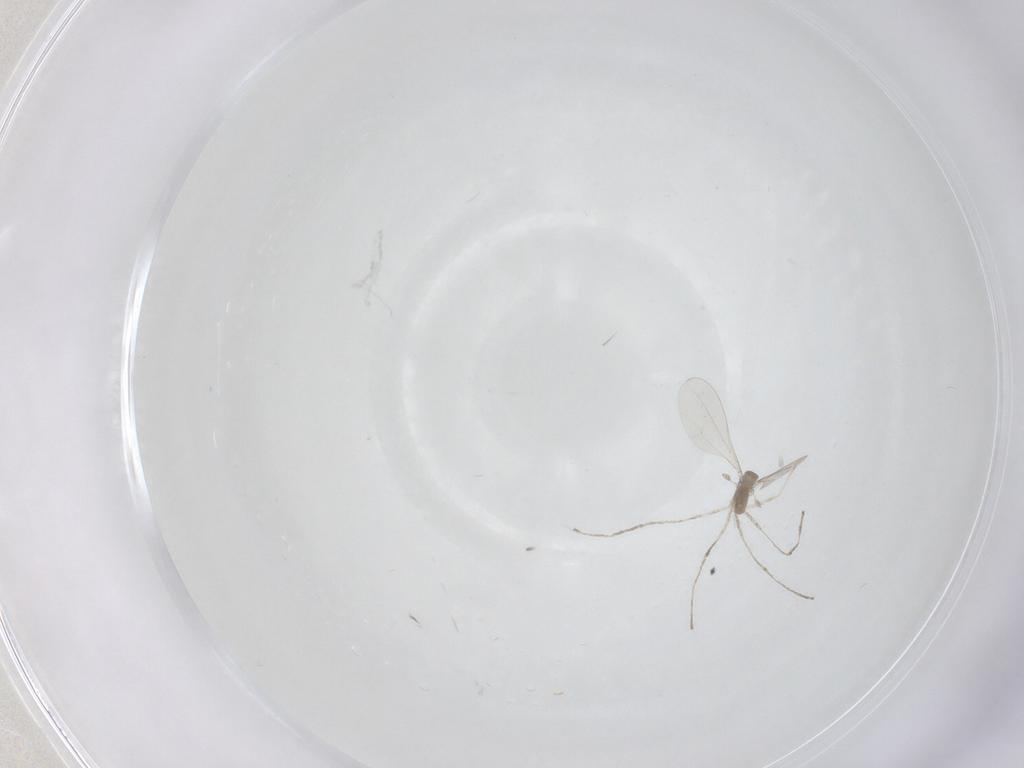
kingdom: Animalia
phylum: Arthropoda
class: Insecta
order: Diptera
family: Cecidomyiidae
